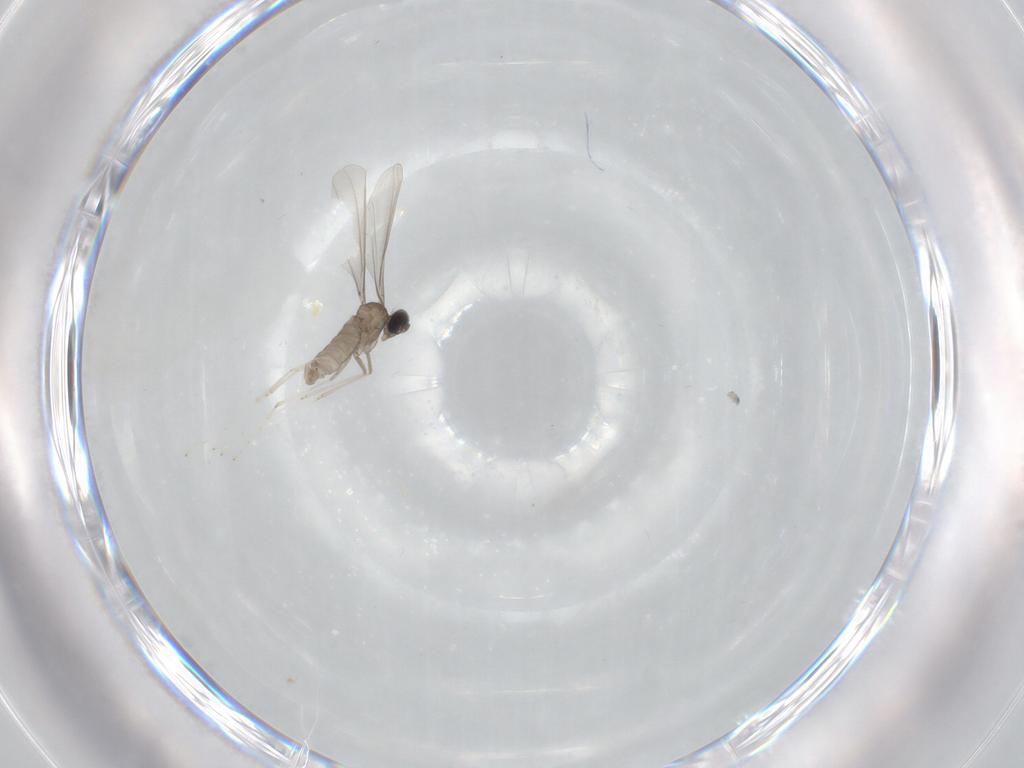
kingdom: Animalia
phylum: Arthropoda
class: Insecta
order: Diptera
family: Cecidomyiidae
